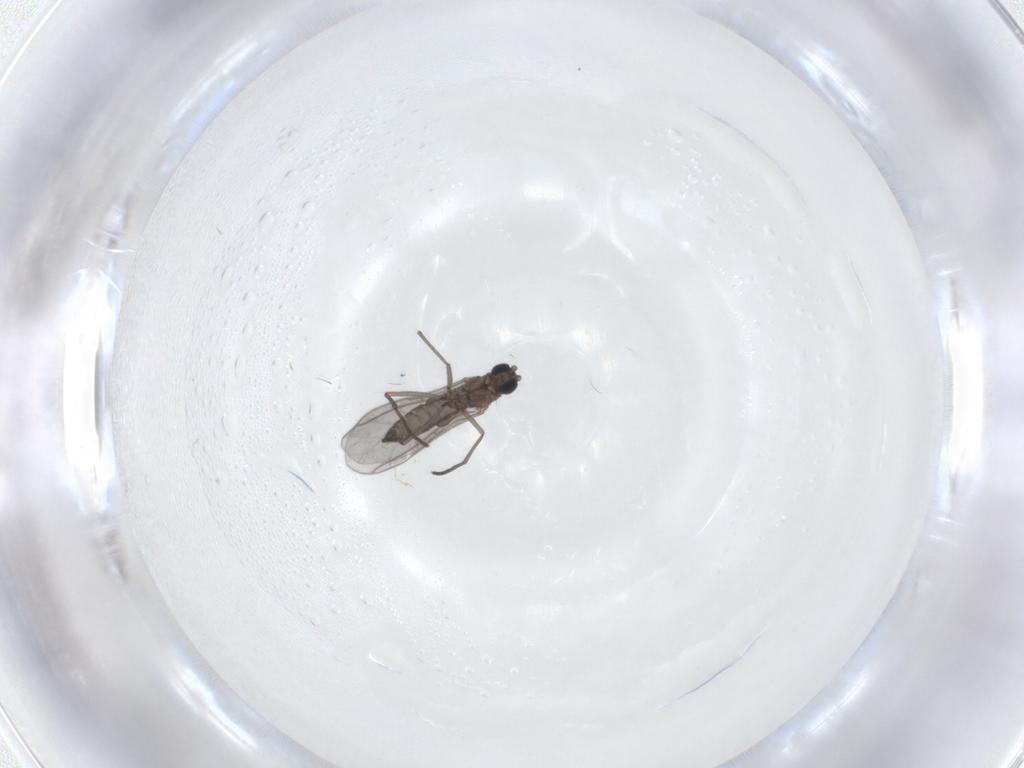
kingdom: Animalia
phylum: Arthropoda
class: Insecta
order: Diptera
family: Chironomidae
